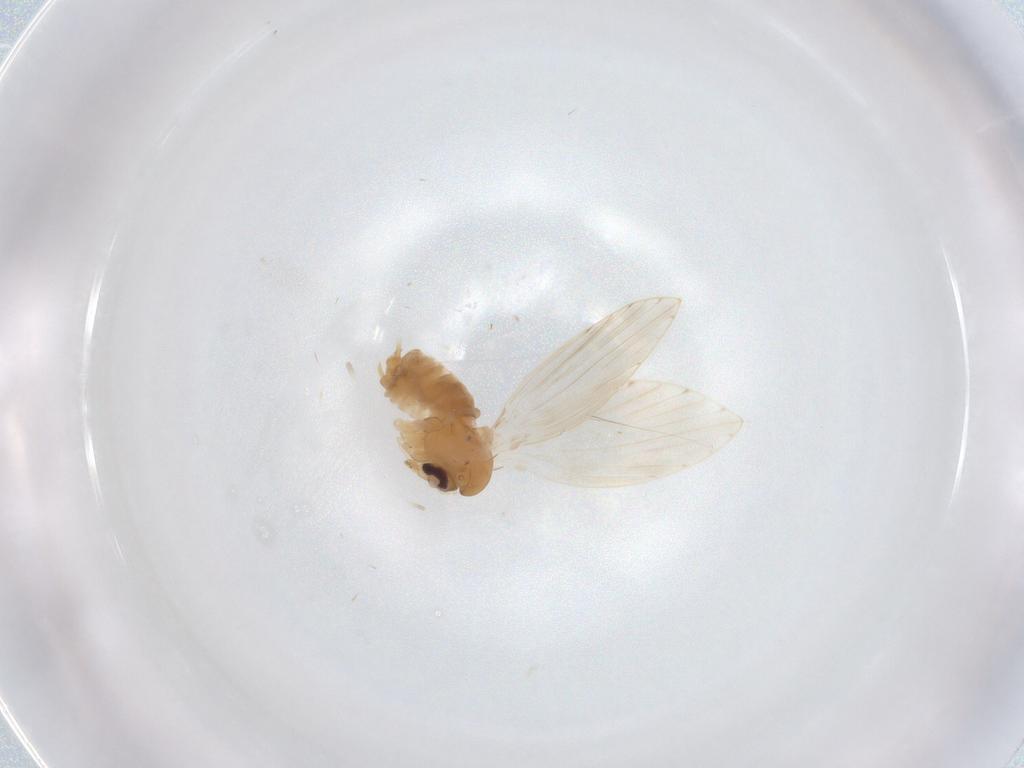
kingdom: Animalia
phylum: Arthropoda
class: Insecta
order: Diptera
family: Psychodidae
